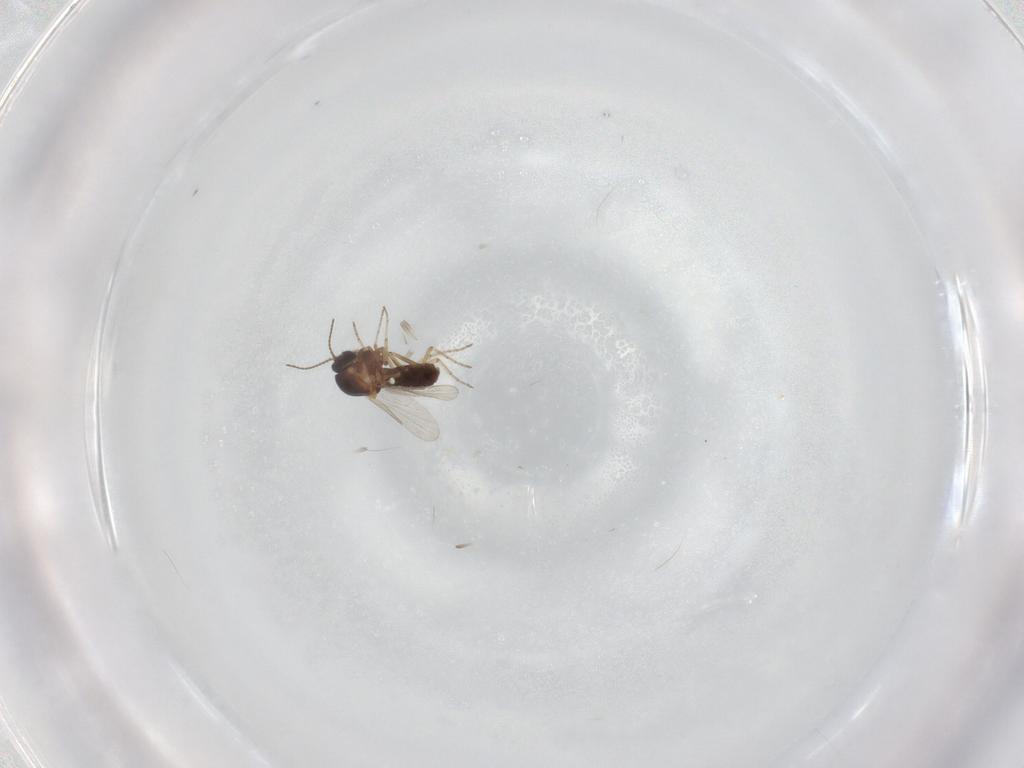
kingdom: Animalia
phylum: Arthropoda
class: Insecta
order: Diptera
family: Ceratopogonidae
